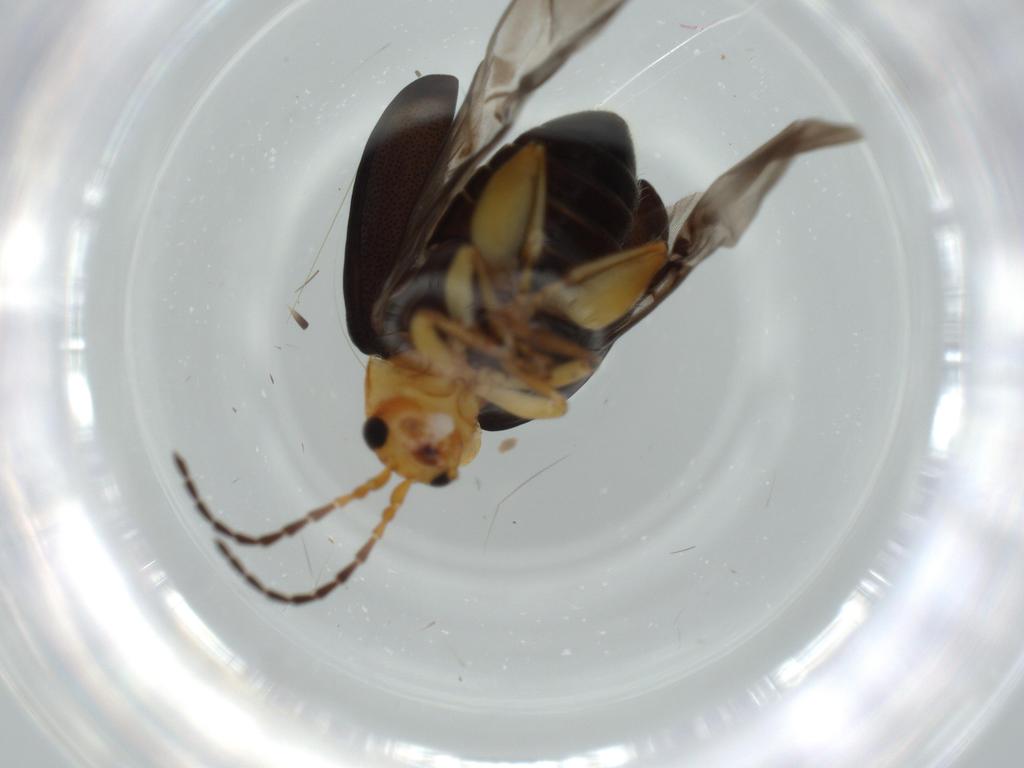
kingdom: Animalia
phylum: Arthropoda
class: Insecta
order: Coleoptera
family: Chrysomelidae
